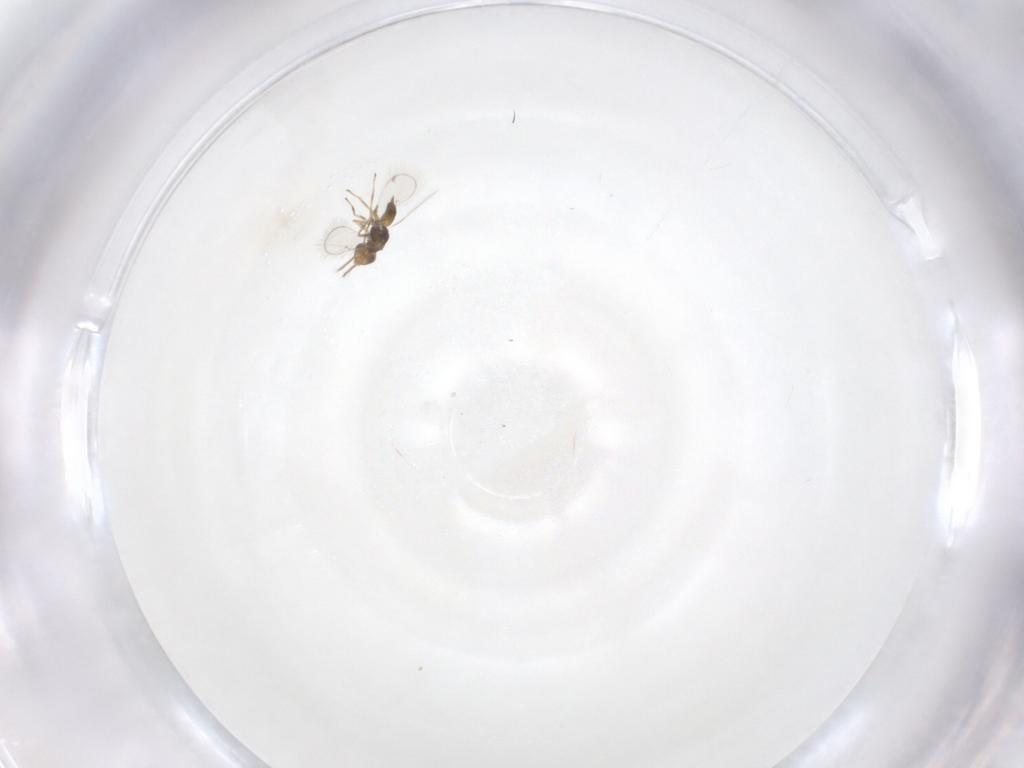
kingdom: Animalia
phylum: Arthropoda
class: Insecta
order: Hymenoptera
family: Eulophidae
